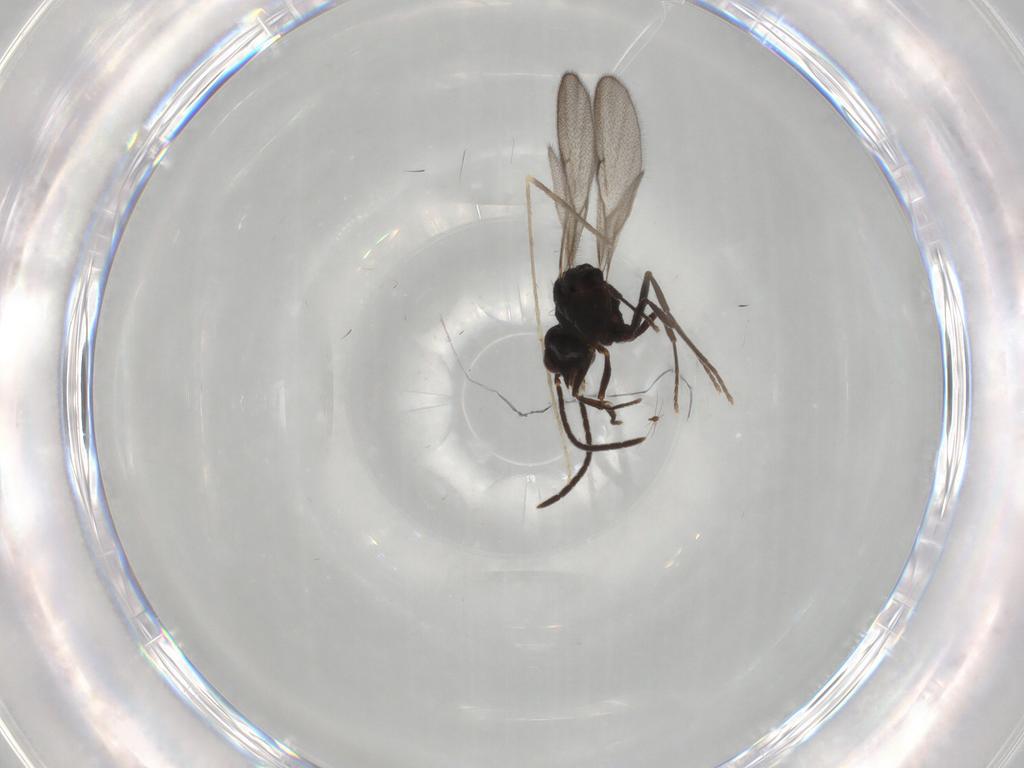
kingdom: Animalia
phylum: Arthropoda
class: Insecta
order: Hymenoptera
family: Formicidae
